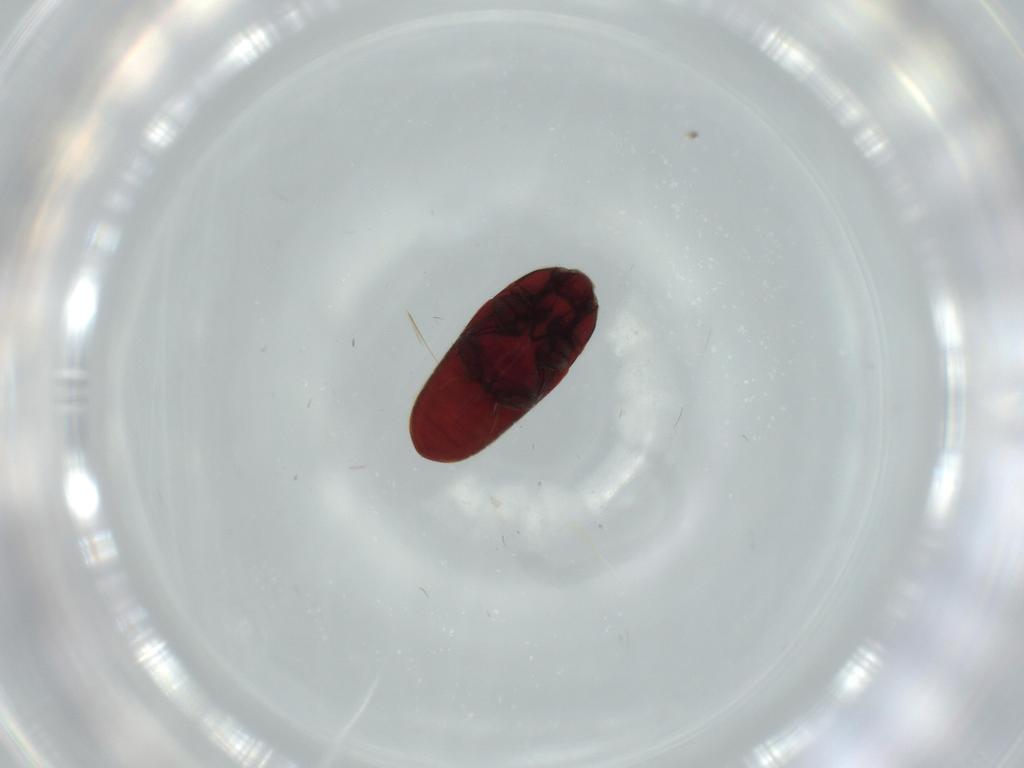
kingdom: Animalia
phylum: Arthropoda
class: Insecta
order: Coleoptera
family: Throscidae
